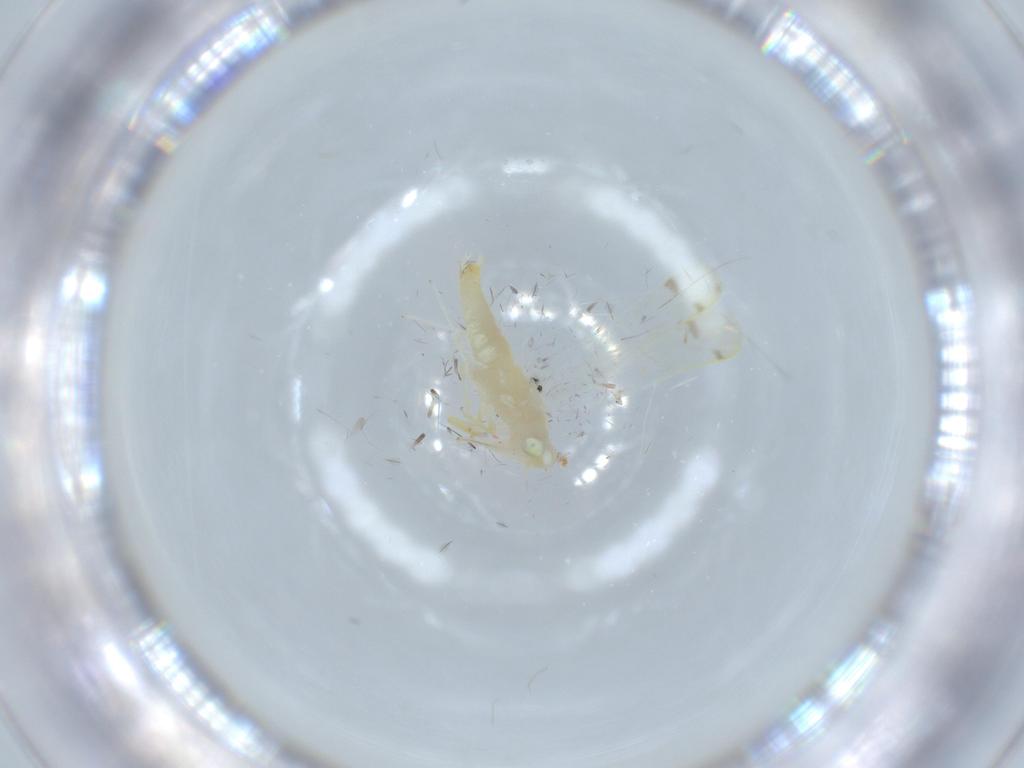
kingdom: Animalia
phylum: Arthropoda
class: Insecta
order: Hemiptera
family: Cicadellidae
